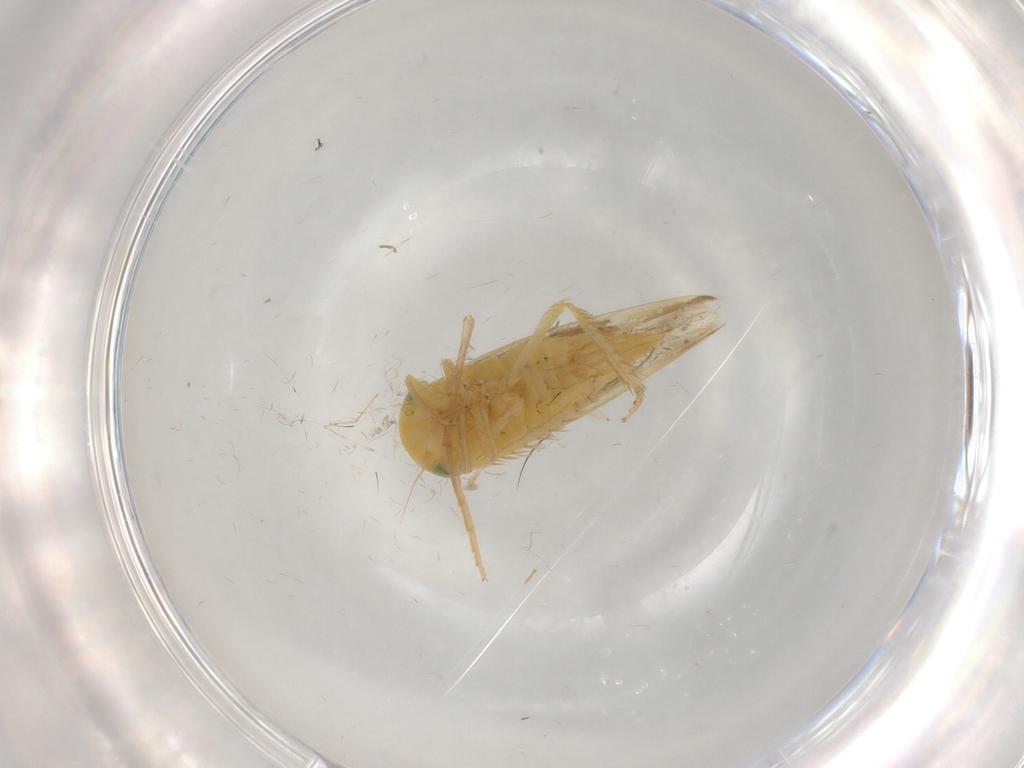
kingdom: Animalia
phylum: Arthropoda
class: Insecta
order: Hemiptera
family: Cicadellidae
